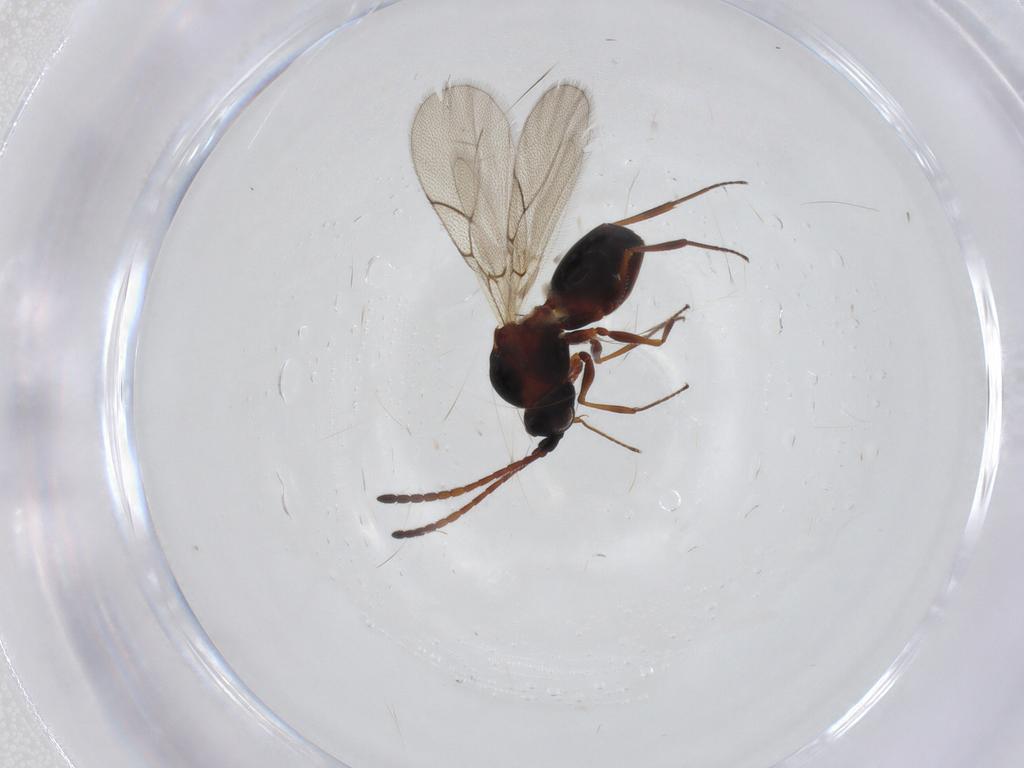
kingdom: Animalia
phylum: Arthropoda
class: Insecta
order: Hymenoptera
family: Figitidae
